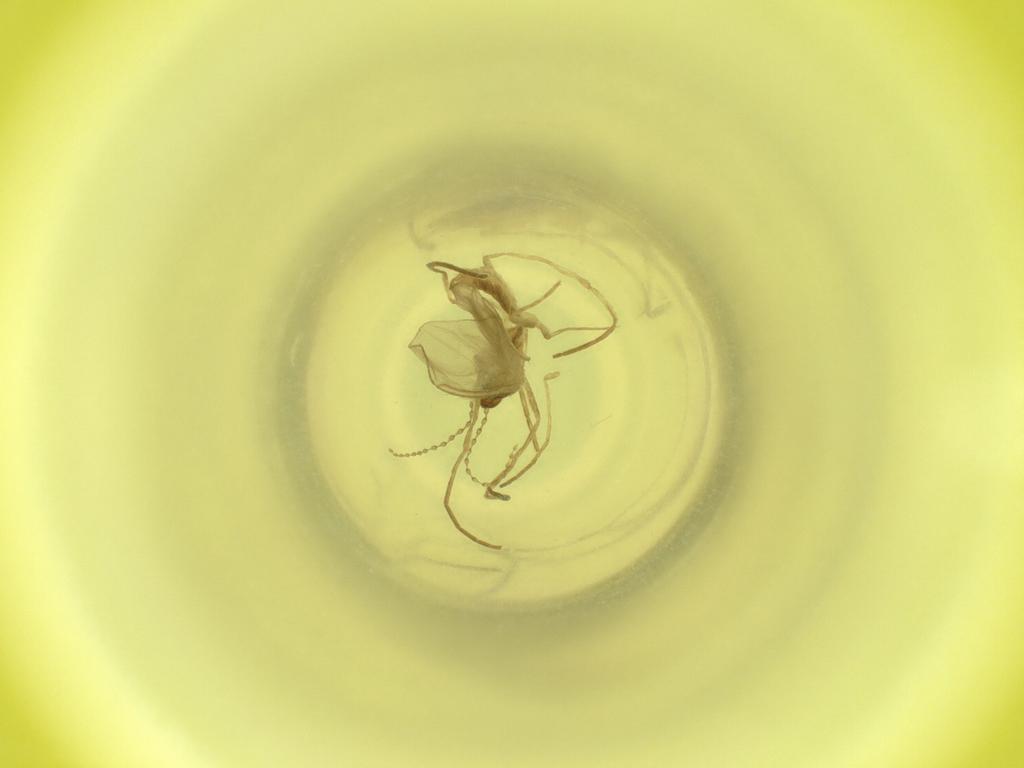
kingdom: Animalia
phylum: Arthropoda
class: Insecta
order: Diptera
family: Cecidomyiidae
